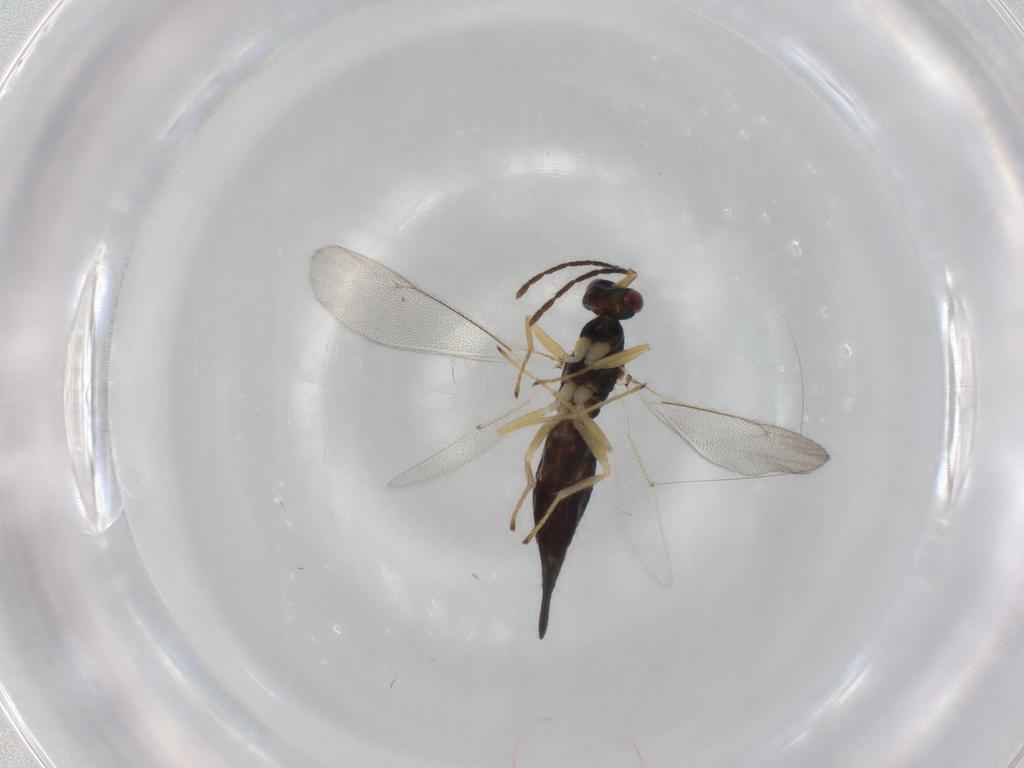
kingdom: Animalia
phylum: Arthropoda
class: Insecta
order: Hymenoptera
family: Eulophidae
